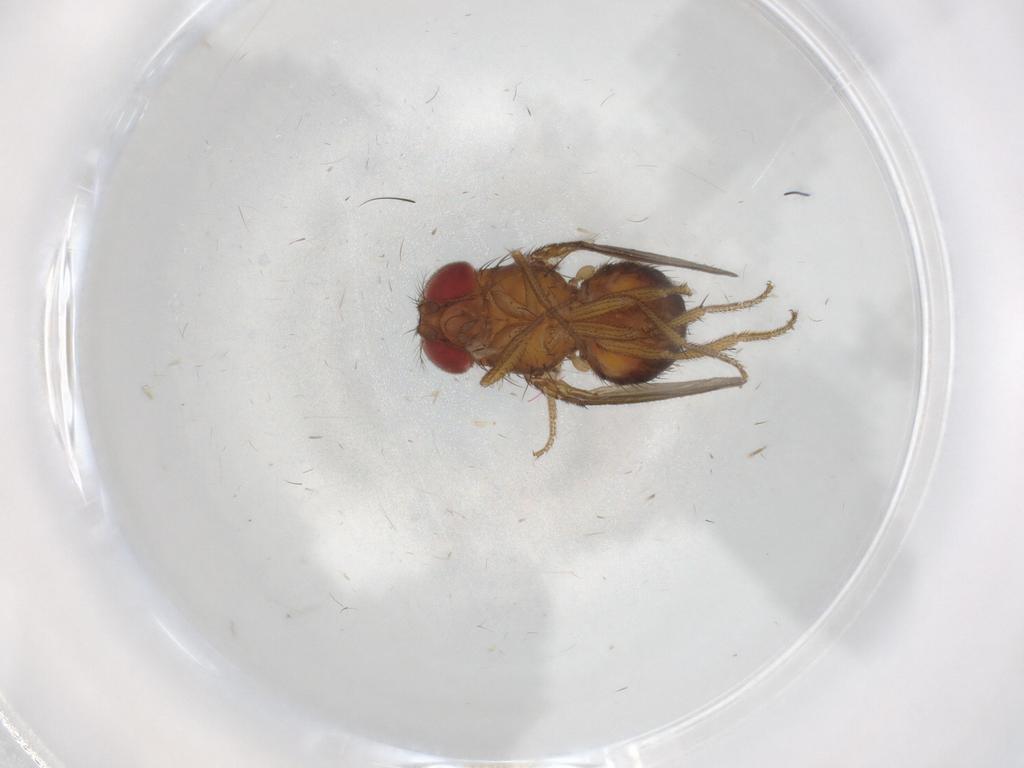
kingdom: Animalia
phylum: Arthropoda
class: Insecta
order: Diptera
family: Drosophilidae
